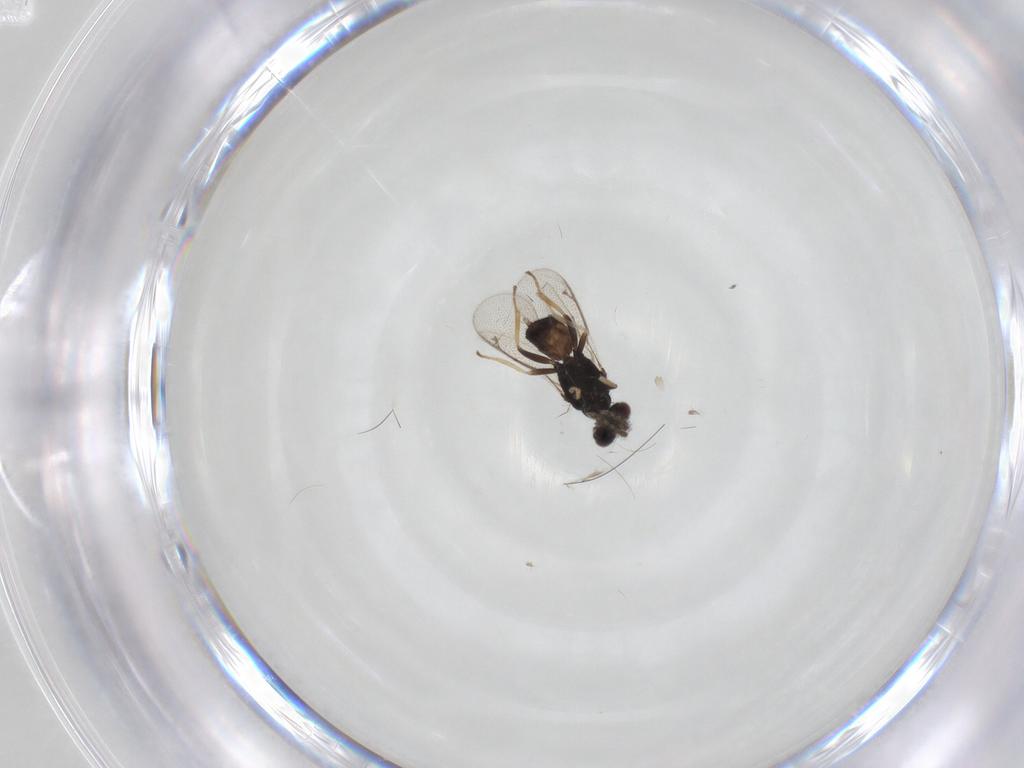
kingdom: Animalia
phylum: Arthropoda
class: Insecta
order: Hymenoptera
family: Eulophidae
